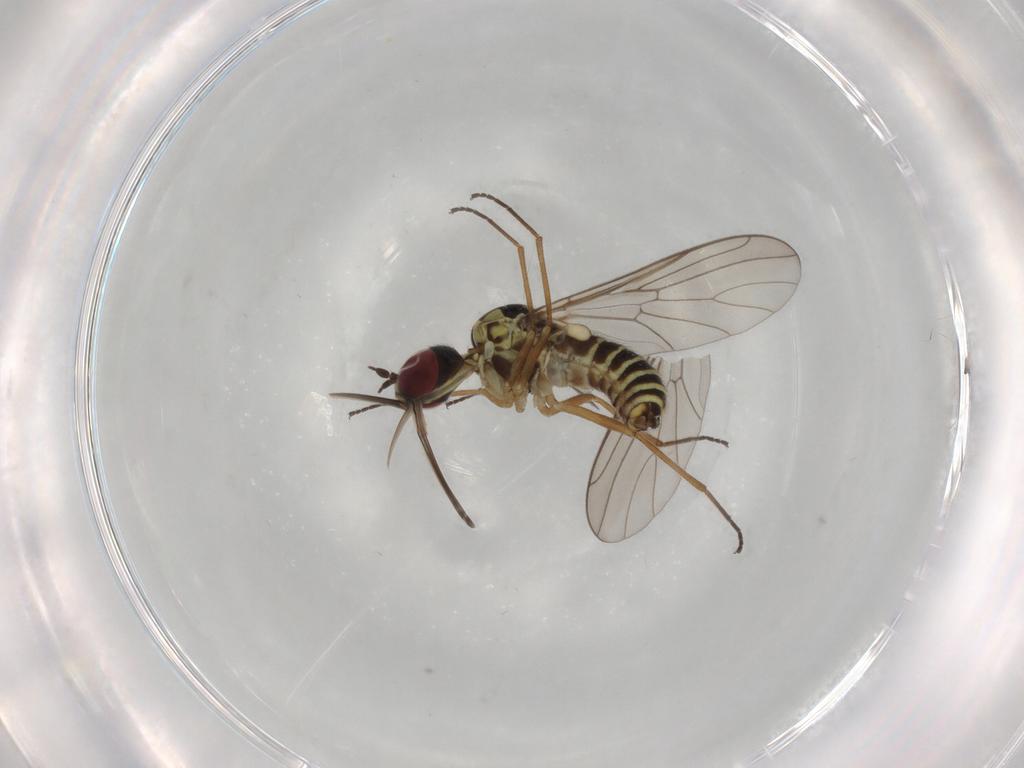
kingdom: Animalia
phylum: Arthropoda
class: Insecta
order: Diptera
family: Mythicomyiidae
